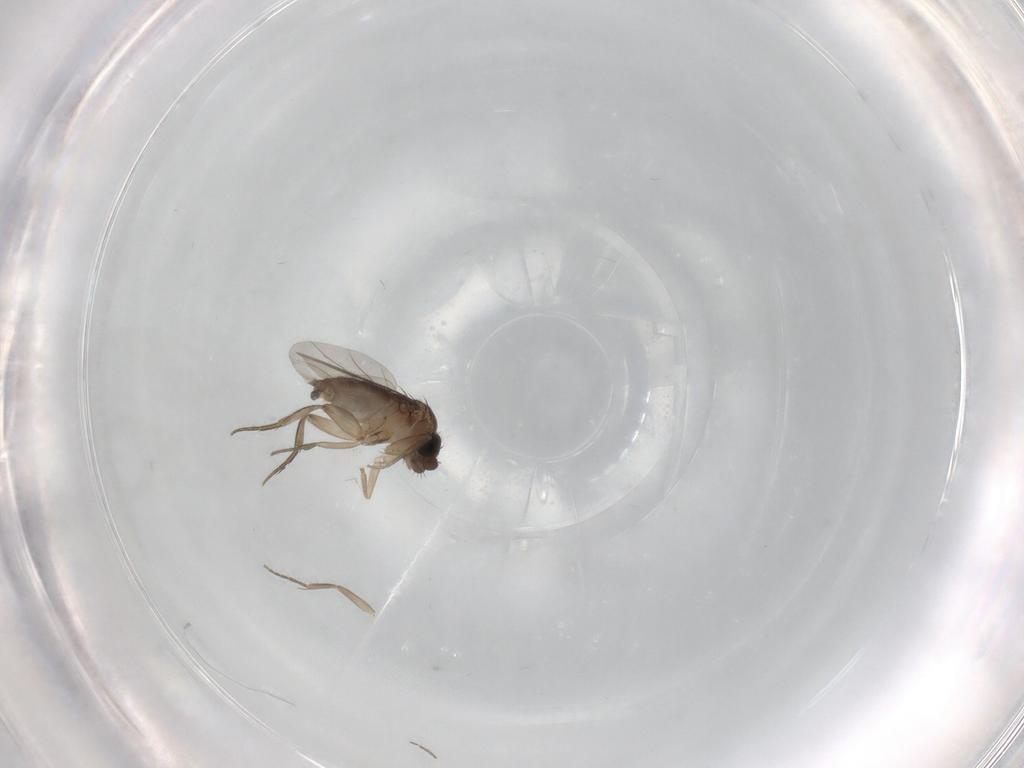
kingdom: Animalia
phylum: Arthropoda
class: Insecta
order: Diptera
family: Phoridae
